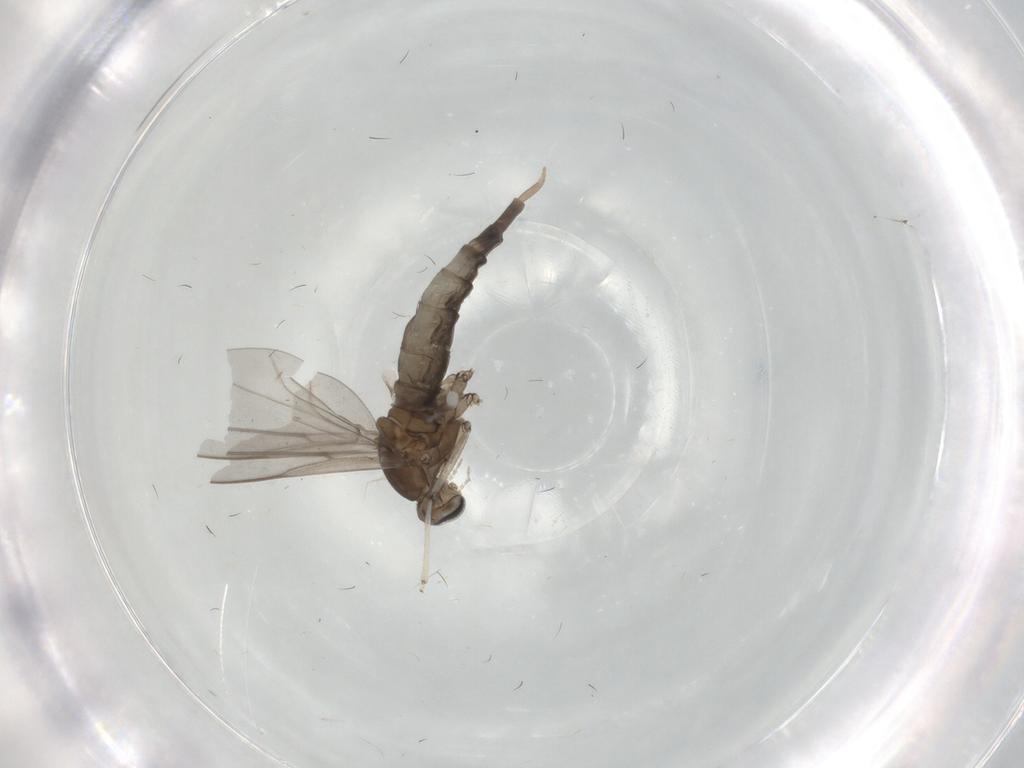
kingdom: Animalia
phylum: Arthropoda
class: Insecta
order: Diptera
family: Cecidomyiidae
